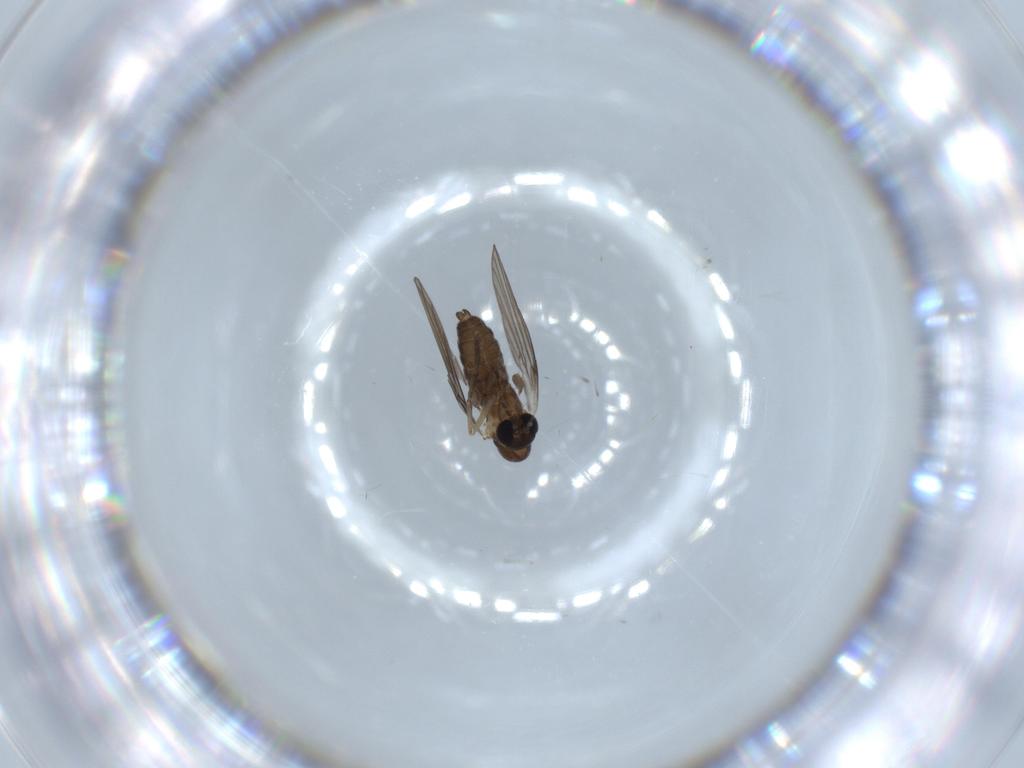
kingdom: Animalia
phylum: Arthropoda
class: Insecta
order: Diptera
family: Psychodidae
